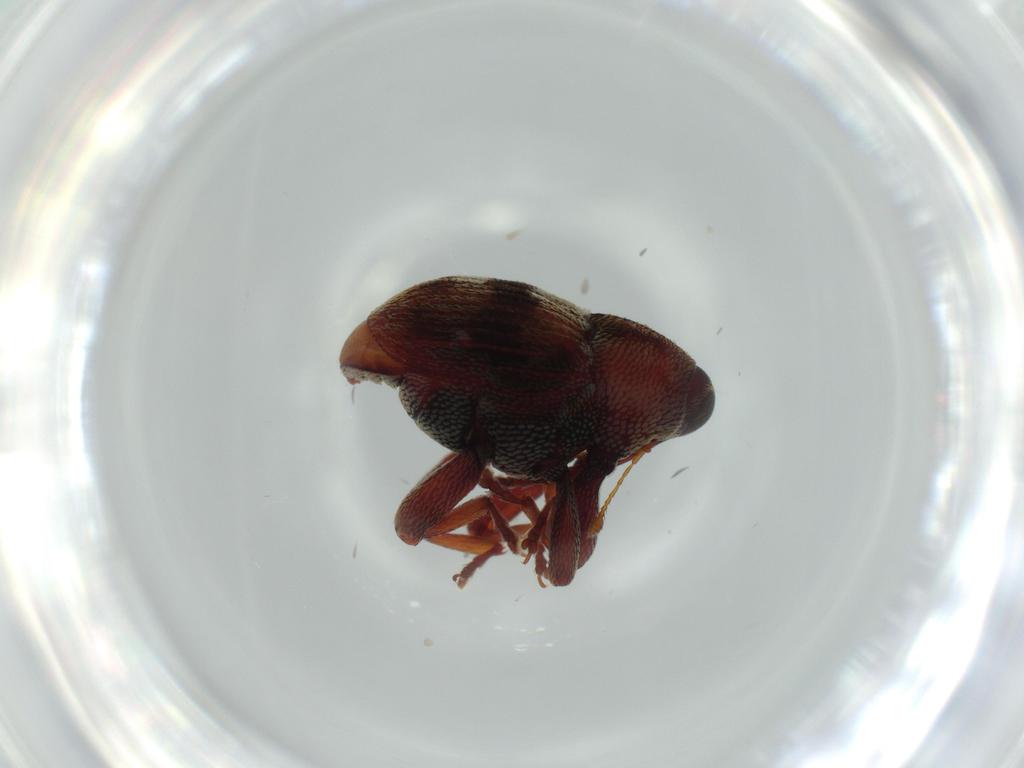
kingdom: Animalia
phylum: Arthropoda
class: Insecta
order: Coleoptera
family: Curculionidae
